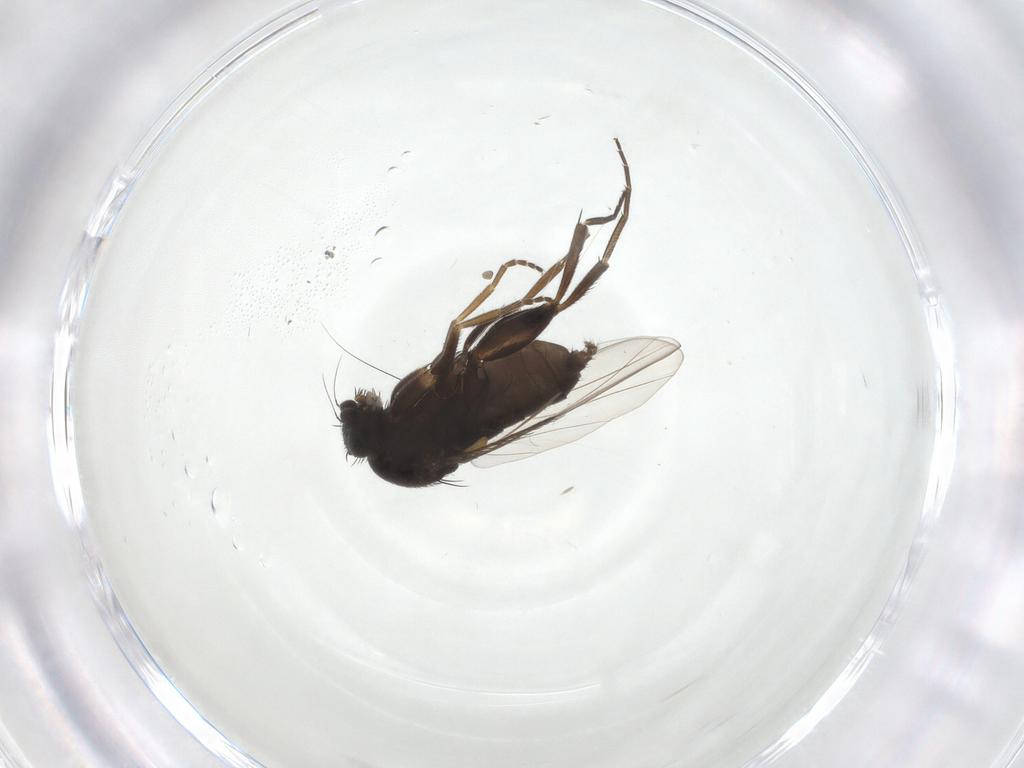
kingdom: Animalia
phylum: Arthropoda
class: Insecta
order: Diptera
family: Phoridae
